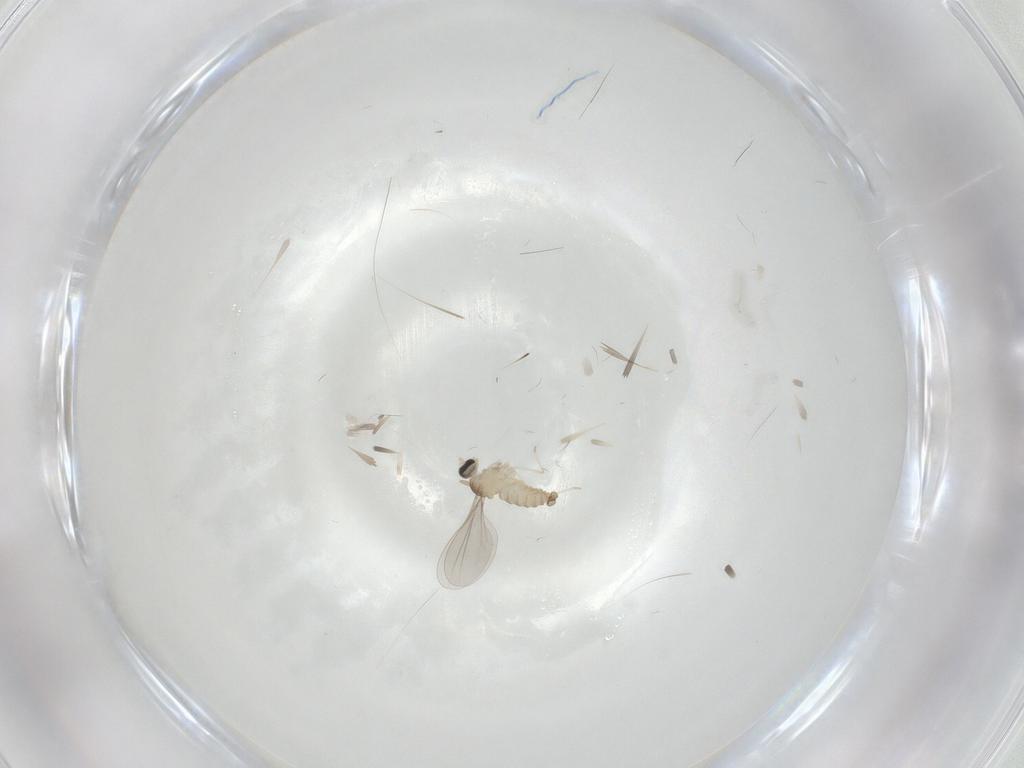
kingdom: Animalia
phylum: Arthropoda
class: Insecta
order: Diptera
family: Cecidomyiidae
